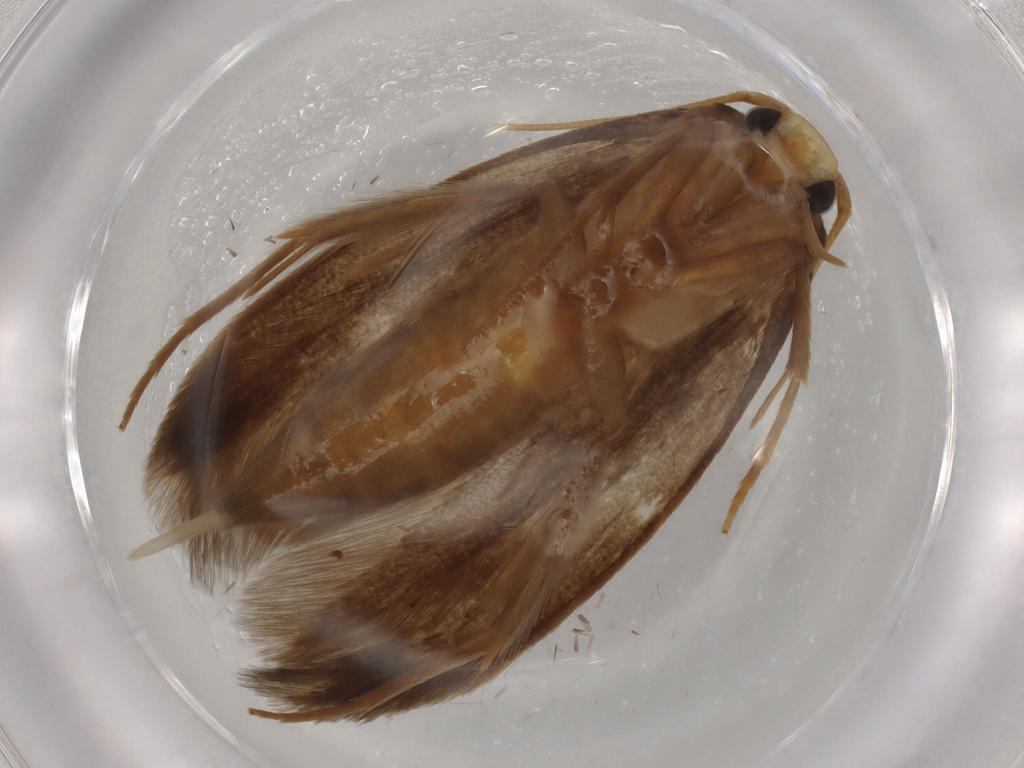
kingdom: Animalia
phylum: Arthropoda
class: Insecta
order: Lepidoptera
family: Tineidae
